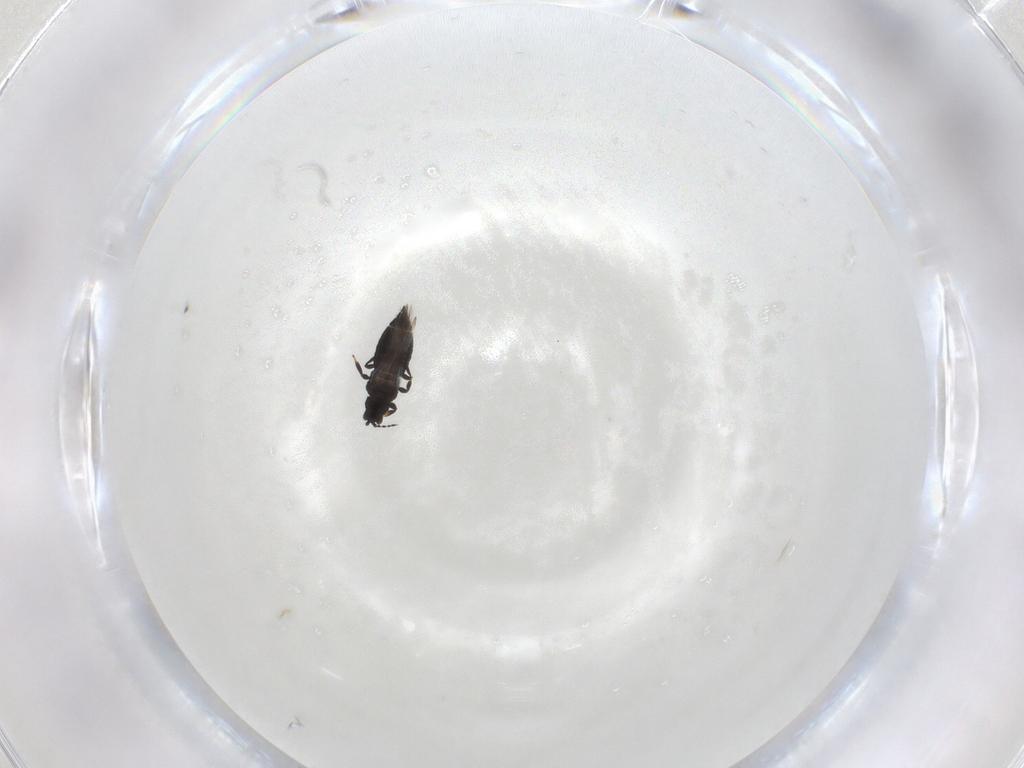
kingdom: Animalia
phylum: Arthropoda
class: Insecta
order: Thysanoptera
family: Thripidae
